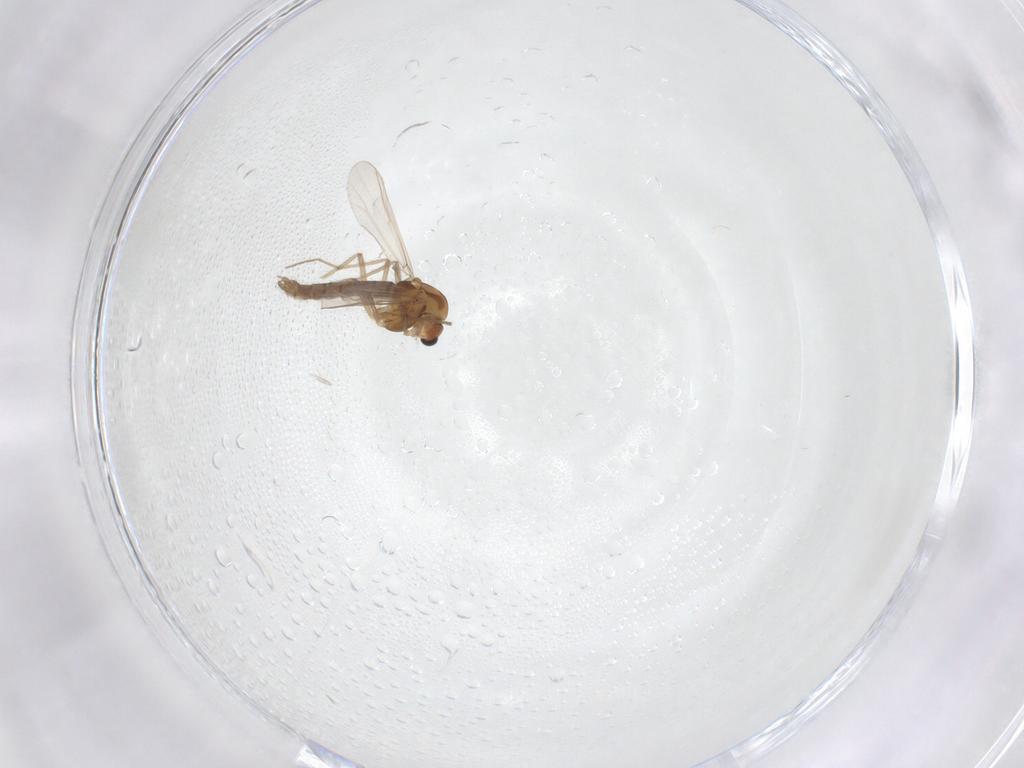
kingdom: Animalia
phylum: Arthropoda
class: Insecta
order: Diptera
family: Chironomidae
